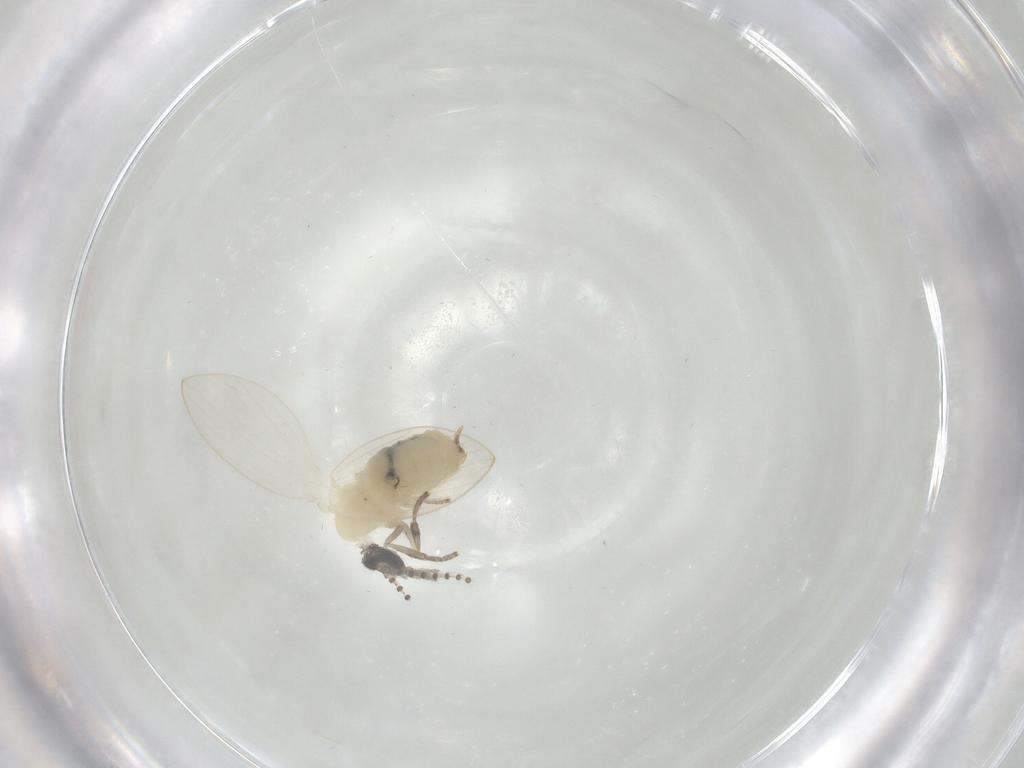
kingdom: Animalia
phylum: Arthropoda
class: Insecta
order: Diptera
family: Psychodidae
